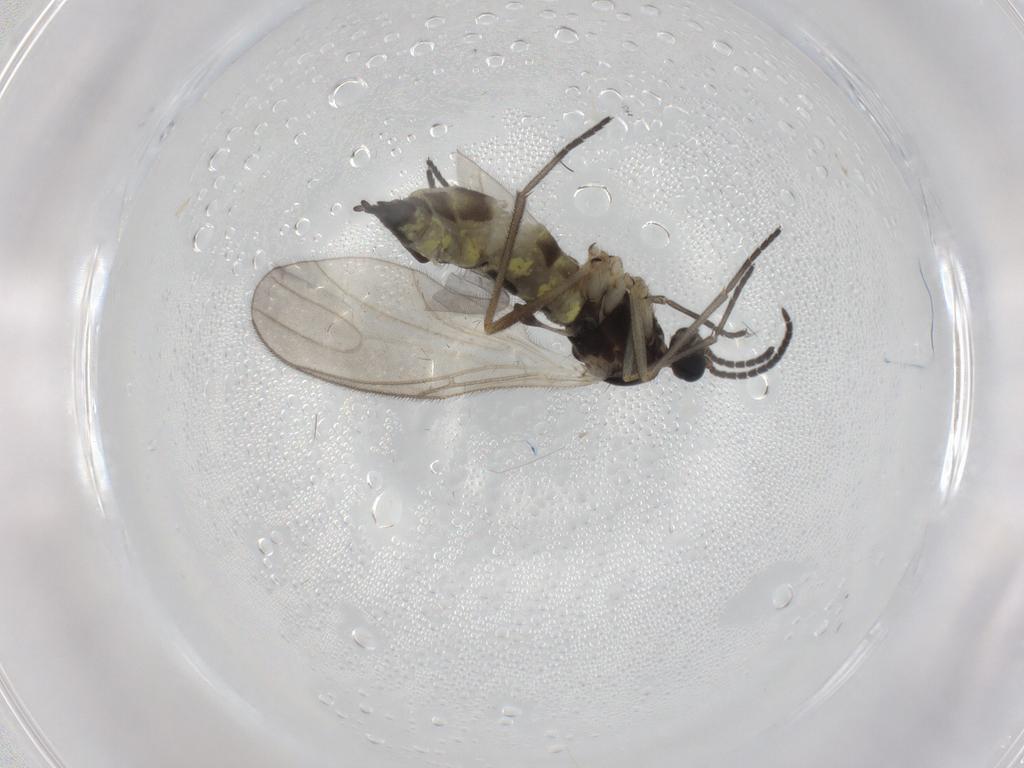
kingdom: Animalia
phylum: Arthropoda
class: Insecta
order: Diptera
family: Sciaridae
